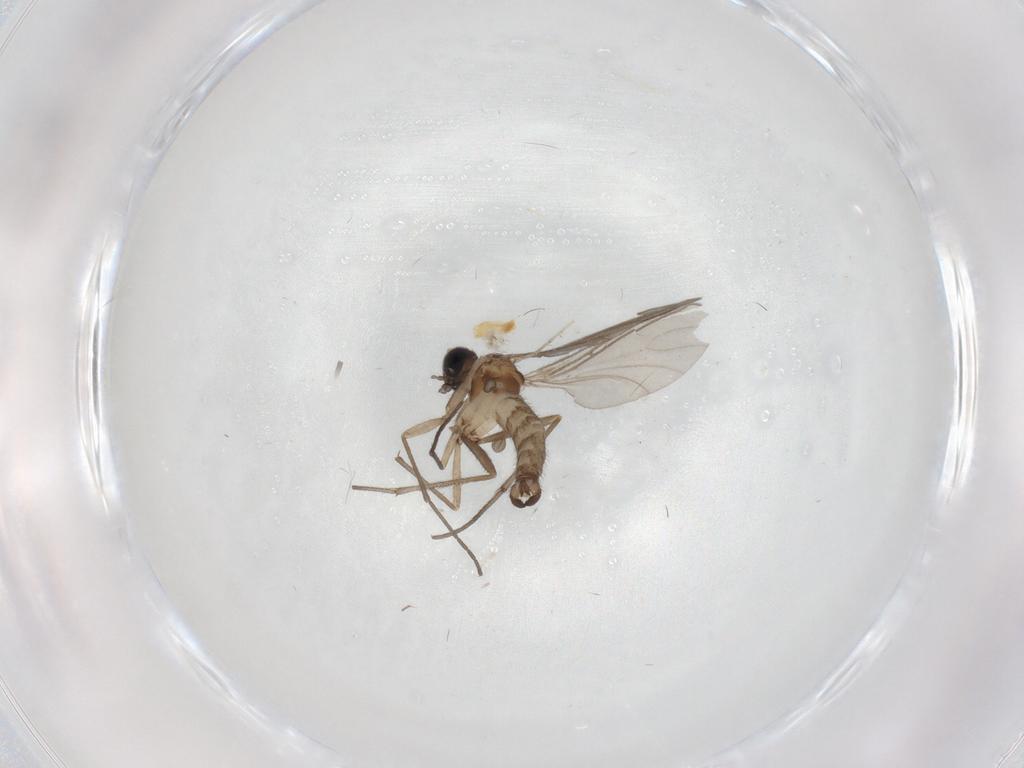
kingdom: Animalia
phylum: Arthropoda
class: Insecta
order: Diptera
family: Sciaridae
